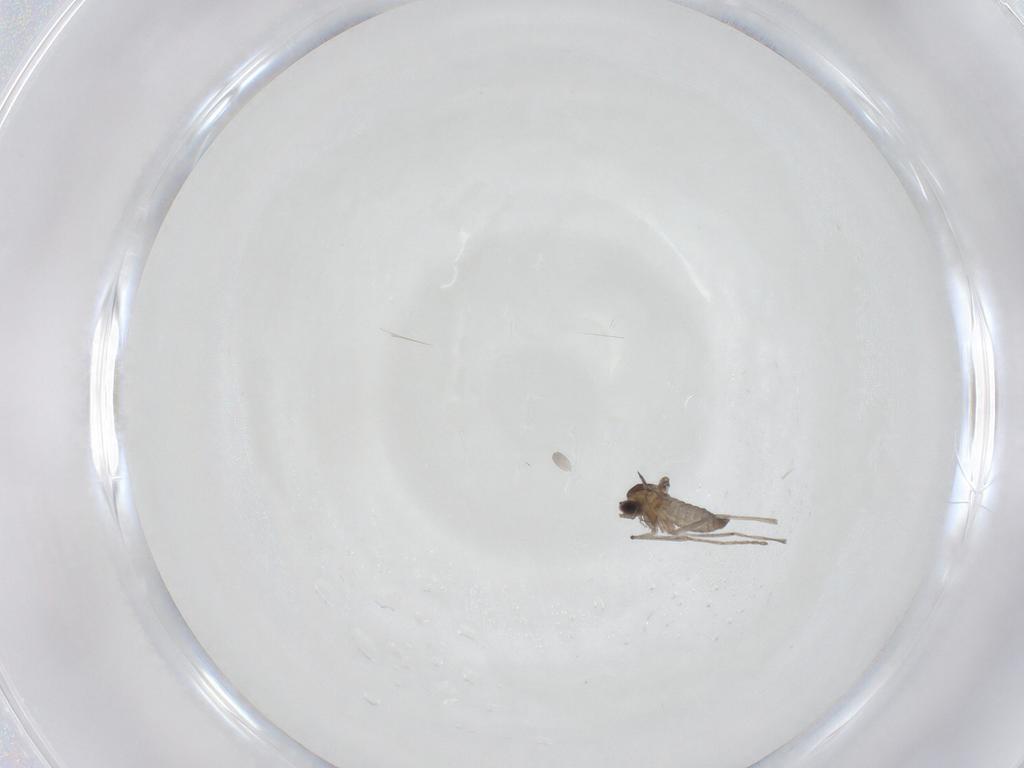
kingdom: Animalia
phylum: Arthropoda
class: Insecta
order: Diptera
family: Cecidomyiidae
